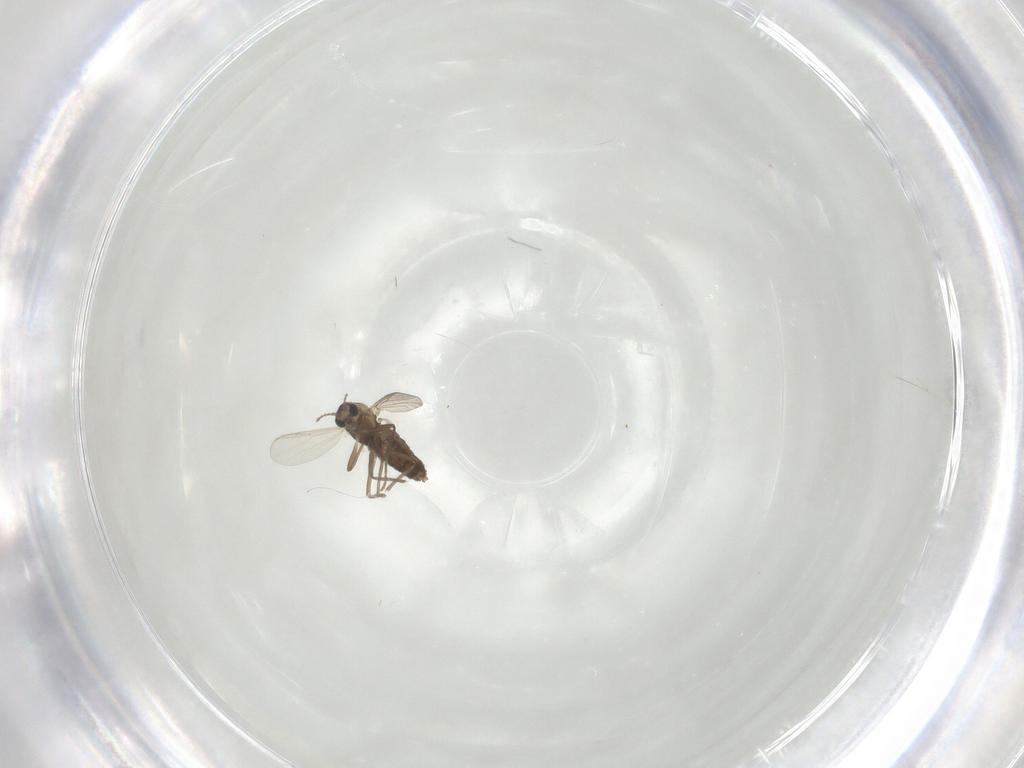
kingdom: Animalia
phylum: Arthropoda
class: Insecta
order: Diptera
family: Chironomidae
